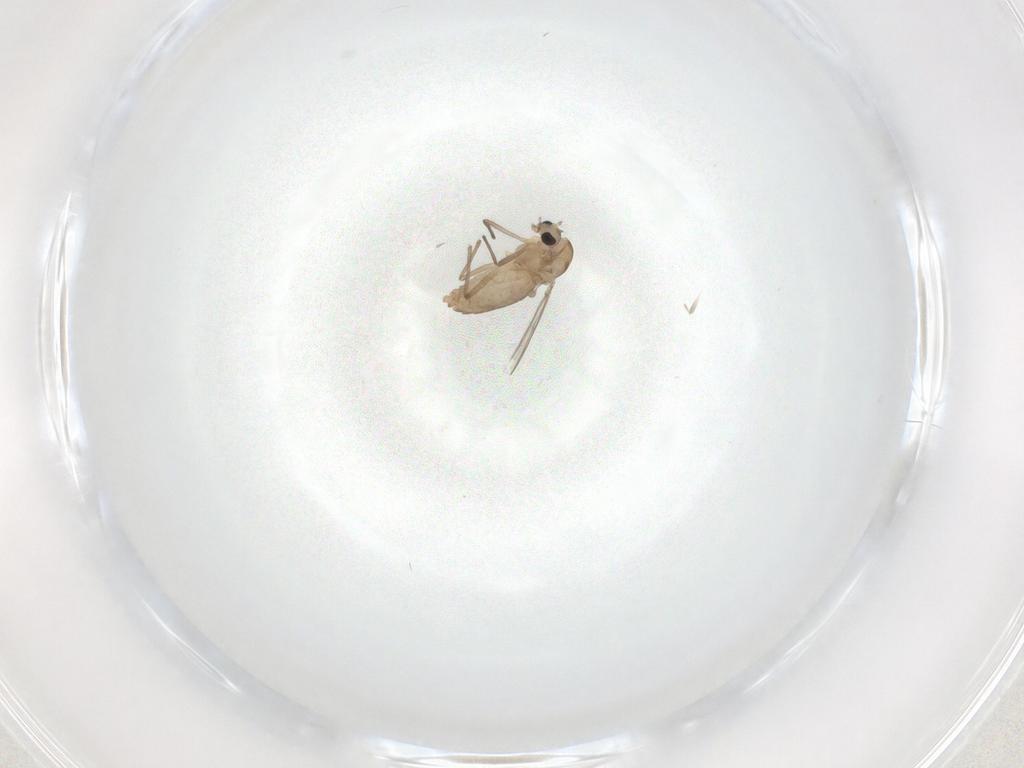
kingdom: Animalia
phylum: Arthropoda
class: Insecta
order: Diptera
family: Chironomidae
